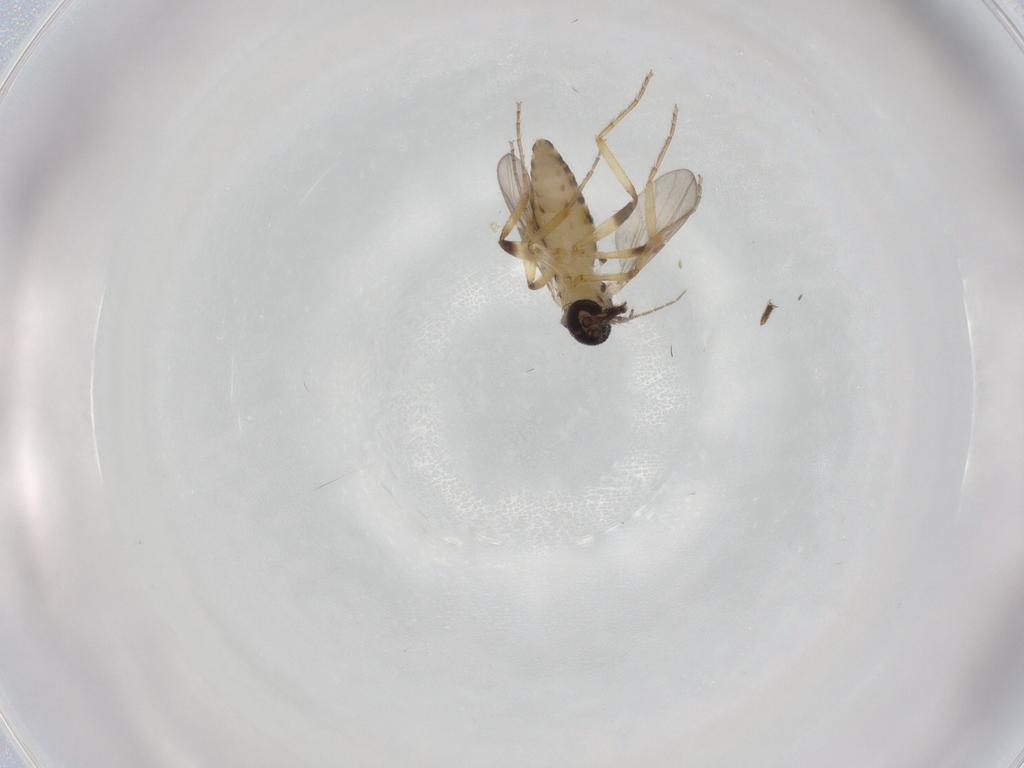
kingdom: Animalia
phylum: Arthropoda
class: Insecta
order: Diptera
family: Ceratopogonidae
